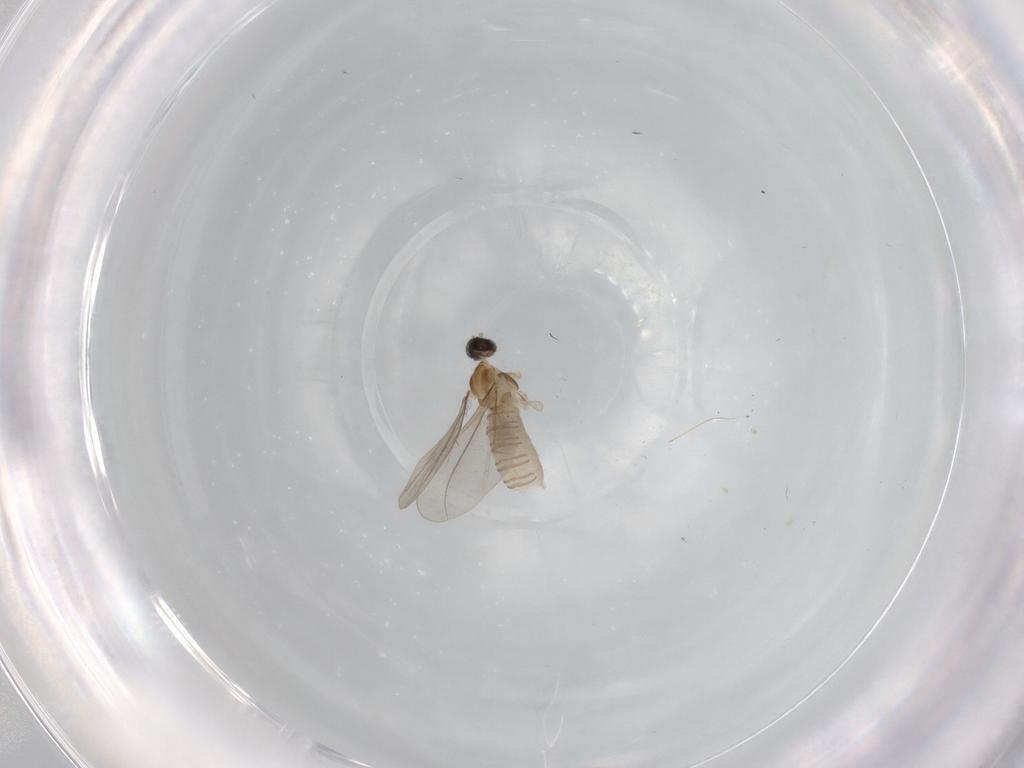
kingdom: Animalia
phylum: Arthropoda
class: Insecta
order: Diptera
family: Cecidomyiidae
